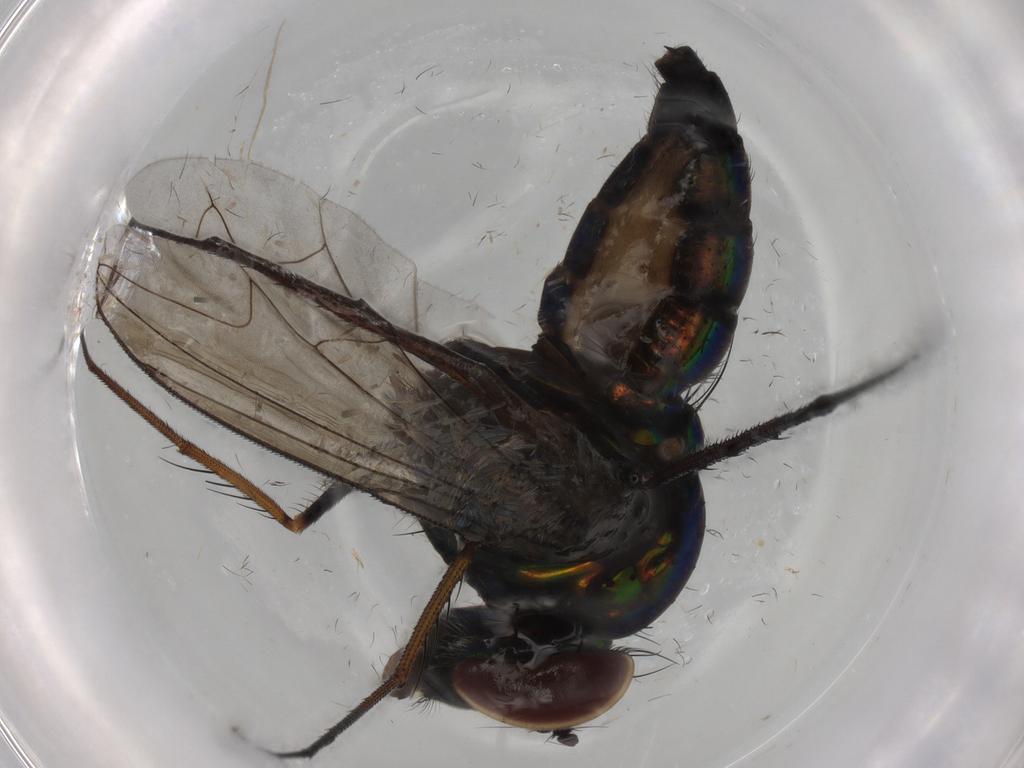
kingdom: Animalia
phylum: Arthropoda
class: Insecta
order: Diptera
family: Dolichopodidae
